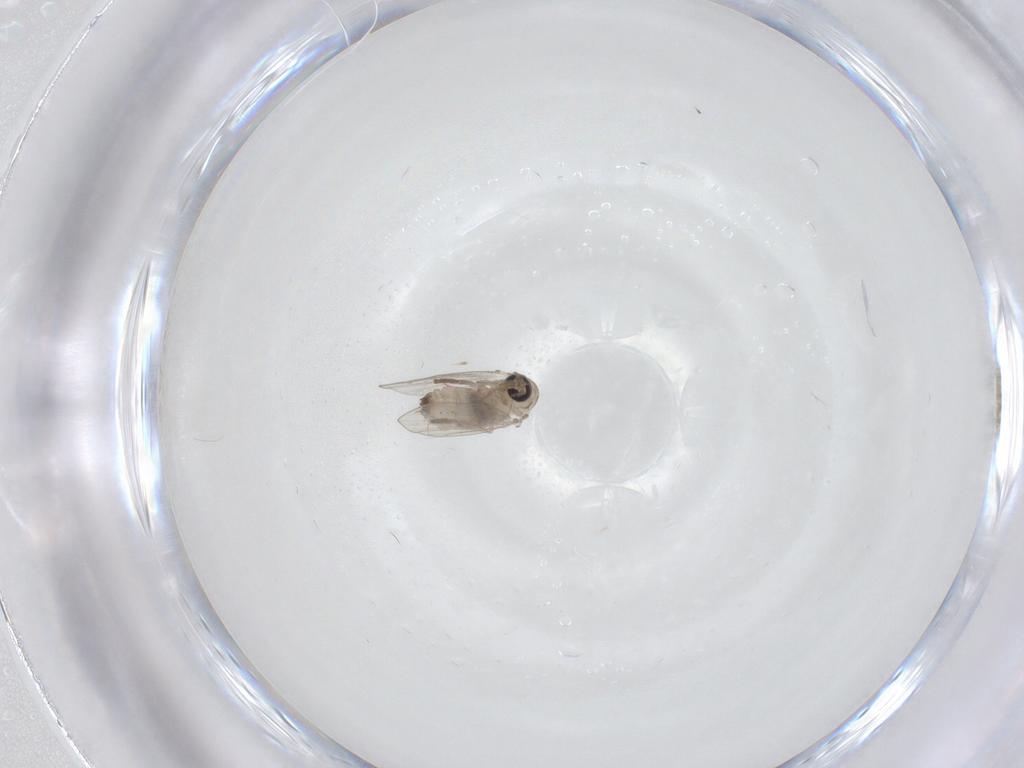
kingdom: Animalia
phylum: Arthropoda
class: Insecta
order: Diptera
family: Psychodidae
